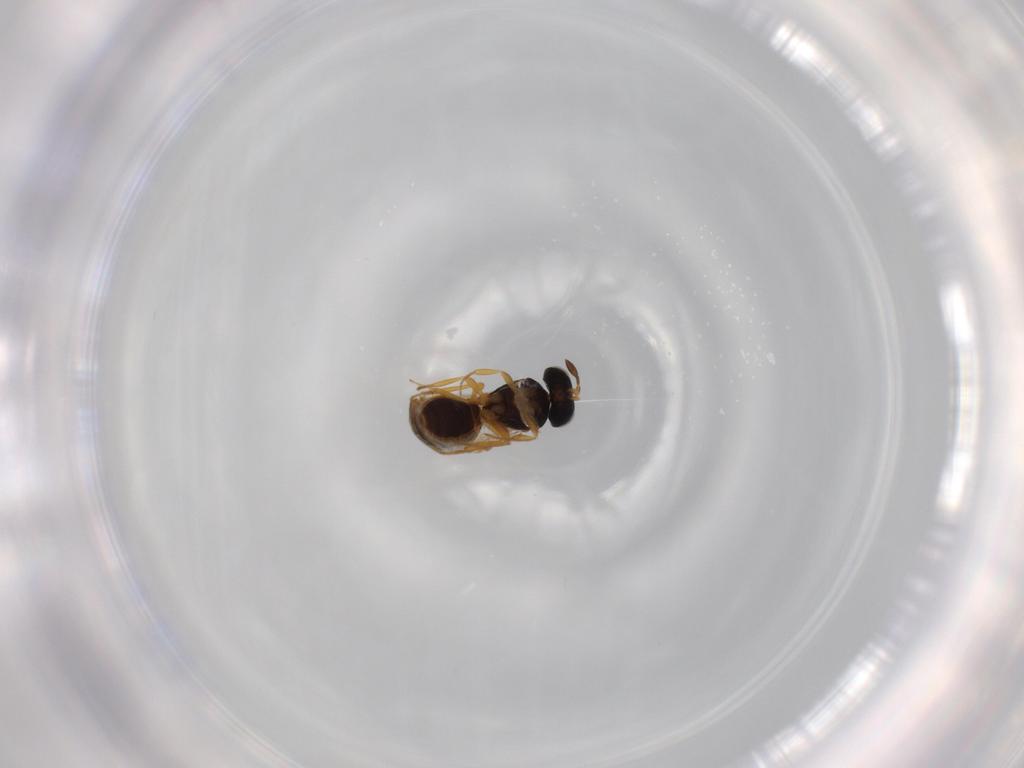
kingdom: Animalia
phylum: Arthropoda
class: Insecta
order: Hymenoptera
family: Scelionidae
